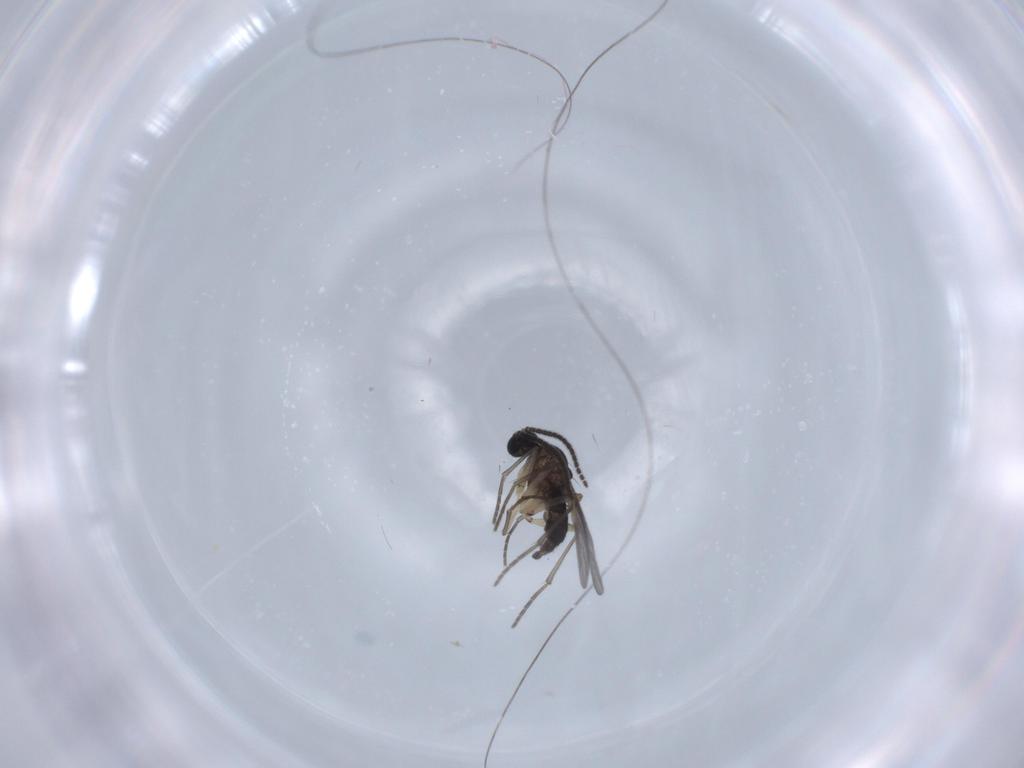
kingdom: Animalia
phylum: Arthropoda
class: Insecta
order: Diptera
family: Sciaridae
